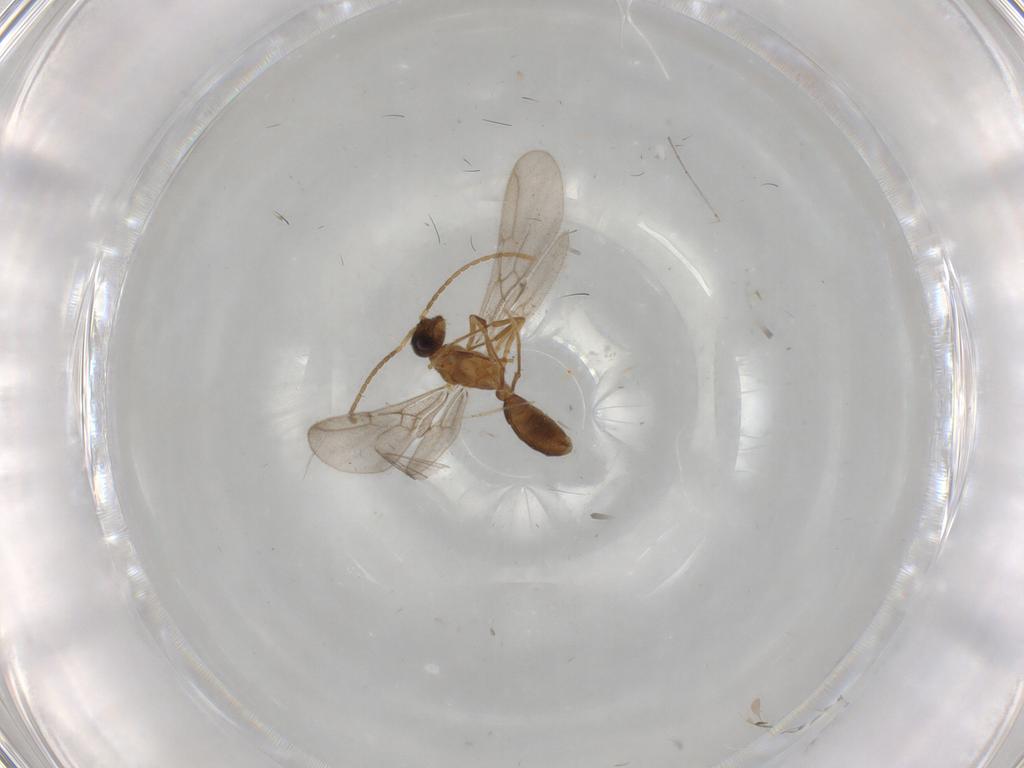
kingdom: Animalia
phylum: Arthropoda
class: Insecta
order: Hymenoptera
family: Formicidae
